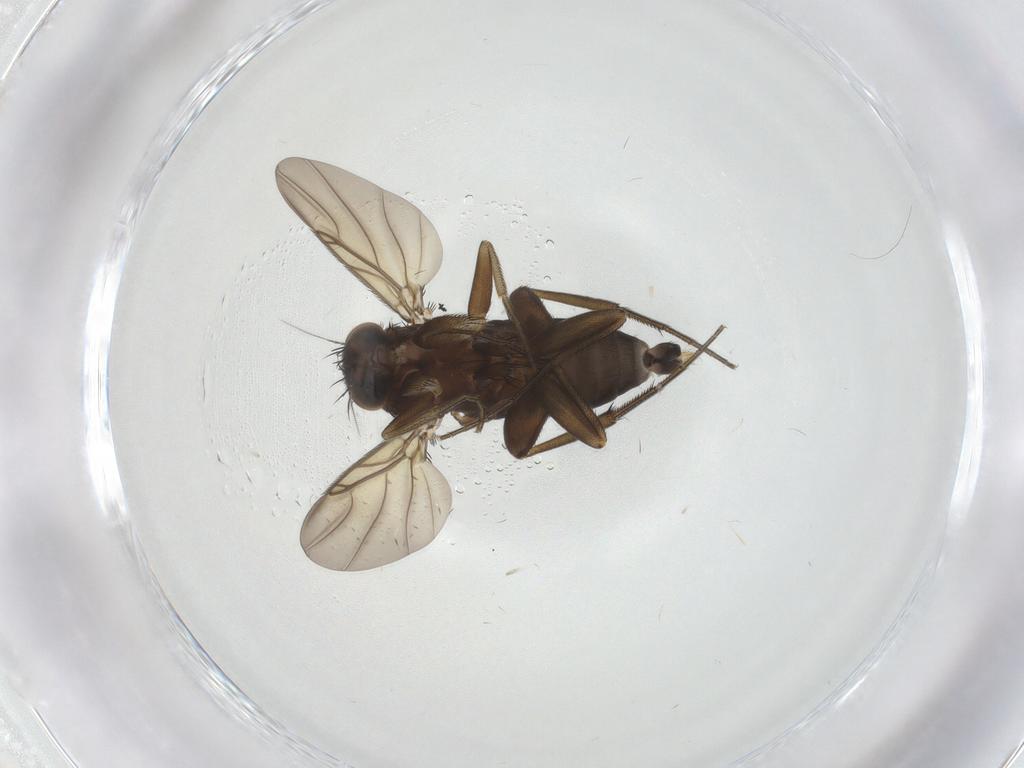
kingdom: Animalia
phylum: Arthropoda
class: Insecta
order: Diptera
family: Phoridae
